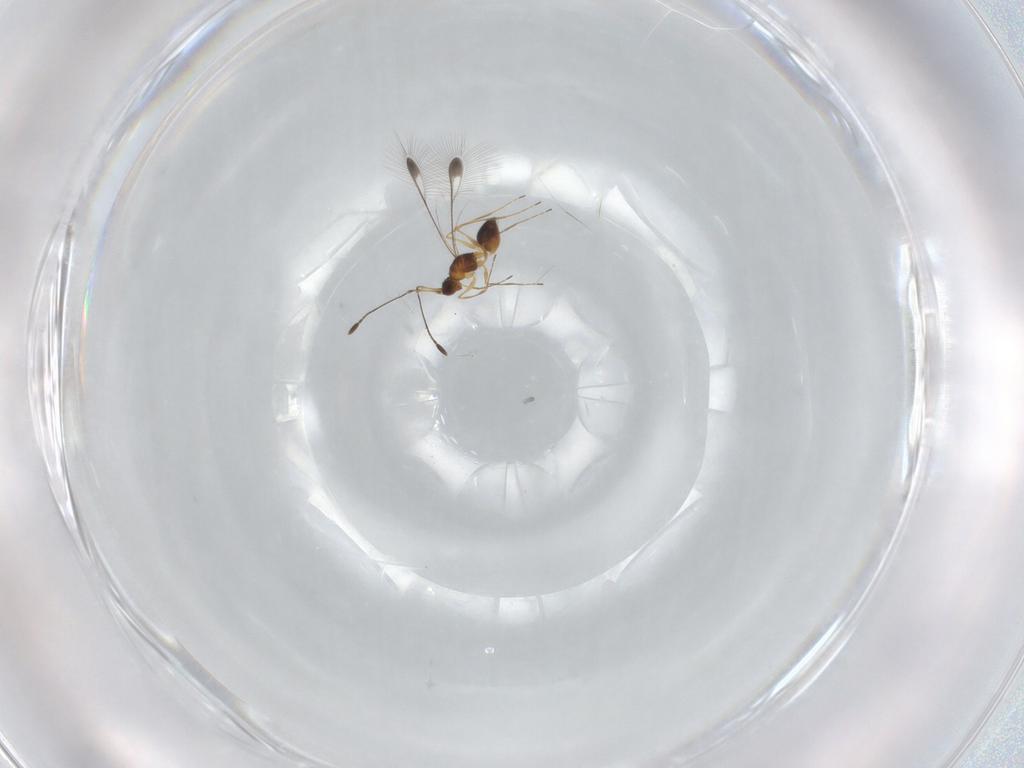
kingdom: Animalia
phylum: Arthropoda
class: Insecta
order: Hymenoptera
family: Mymaridae
